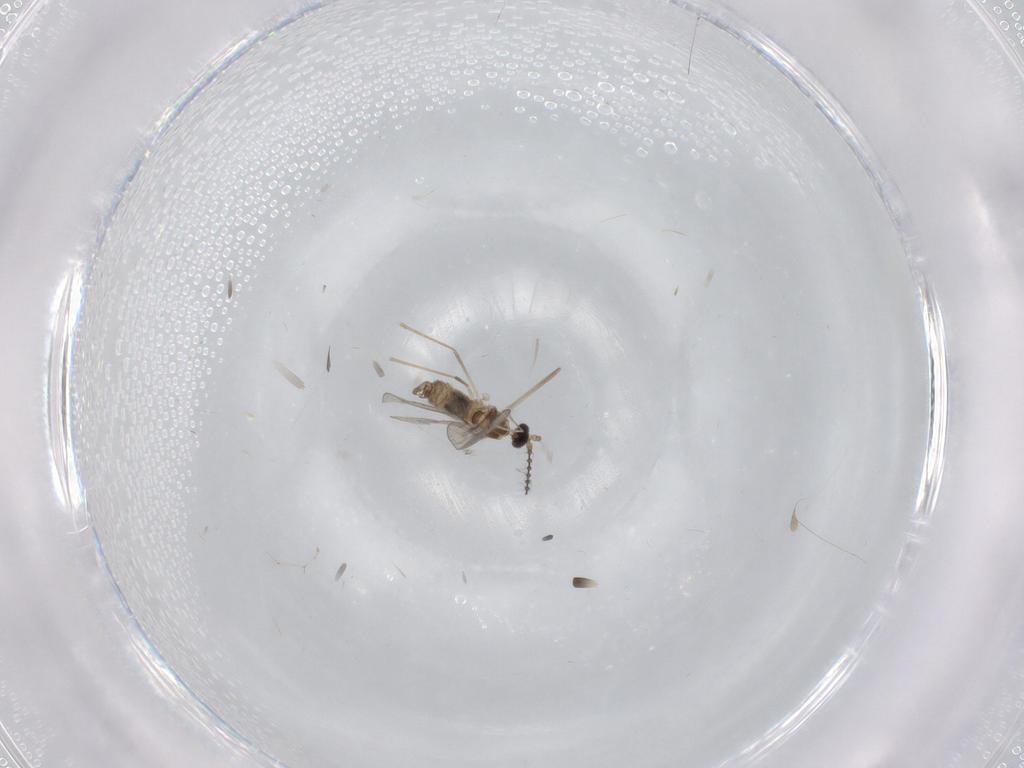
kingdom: Animalia
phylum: Arthropoda
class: Insecta
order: Diptera
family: Cecidomyiidae
